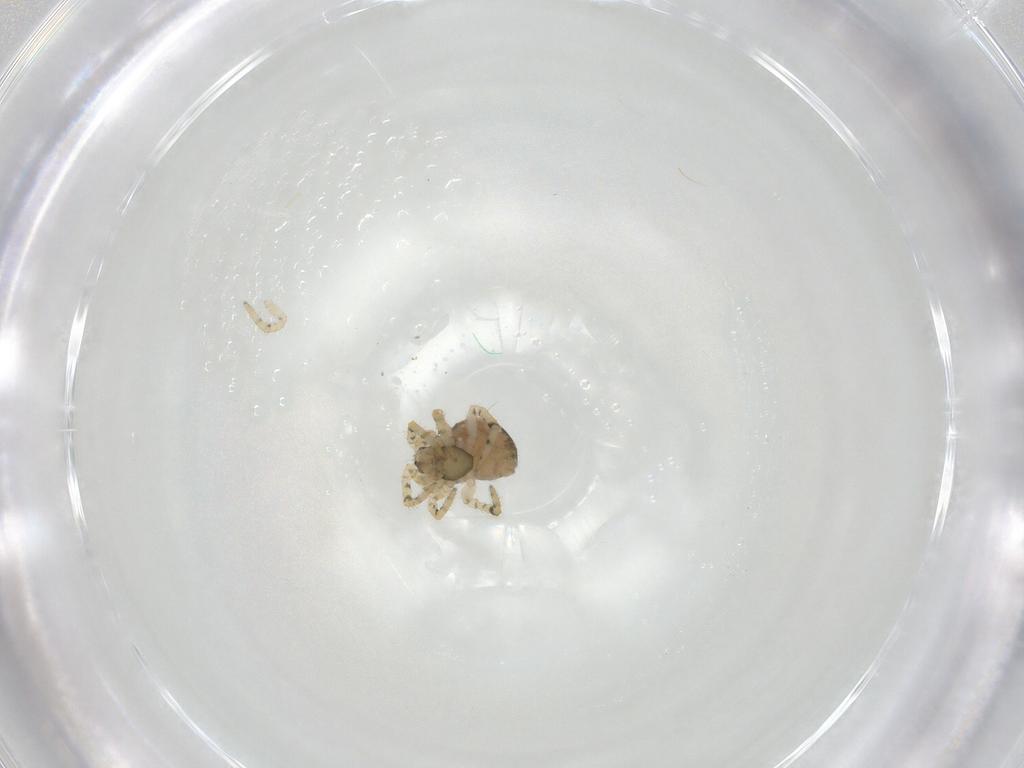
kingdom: Animalia
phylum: Arthropoda
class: Arachnida
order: Araneae
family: Theridiidae
